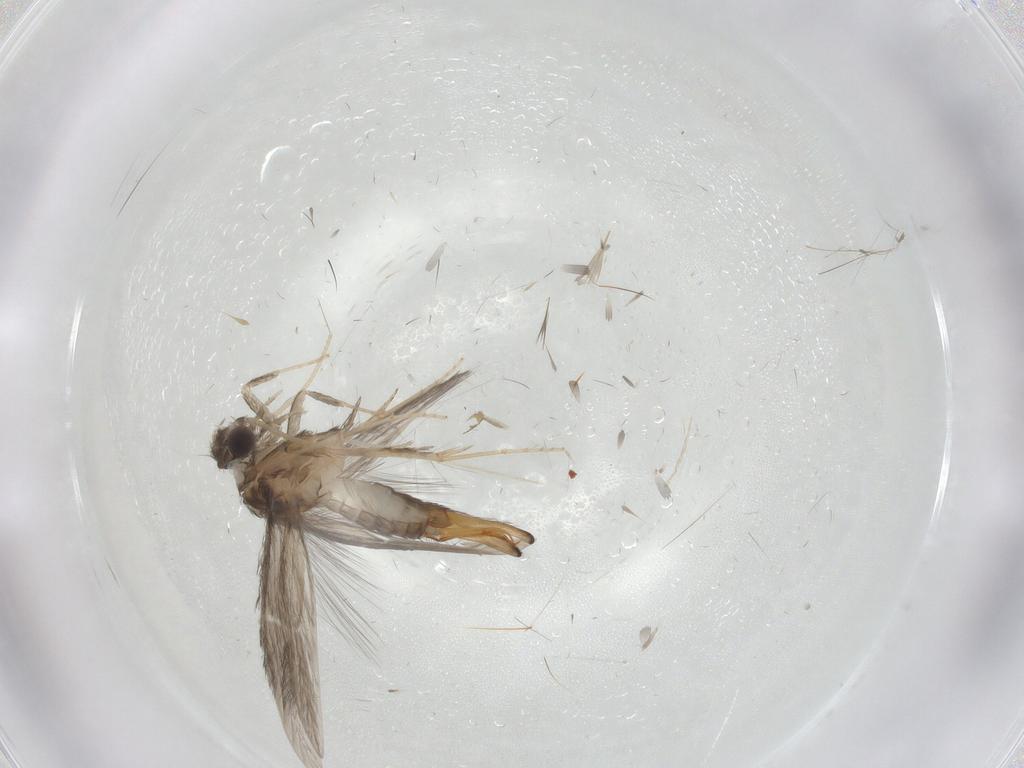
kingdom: Animalia
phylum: Arthropoda
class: Insecta
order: Trichoptera
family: Hydroptilidae
